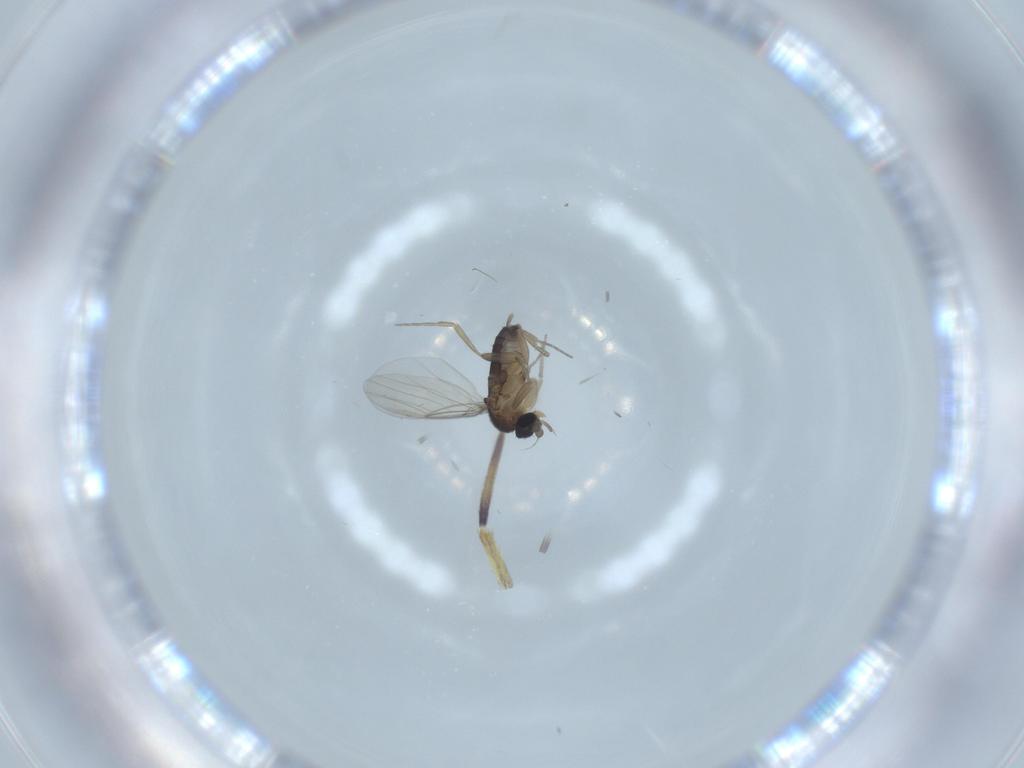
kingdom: Animalia
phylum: Arthropoda
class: Insecta
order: Diptera
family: Phoridae
